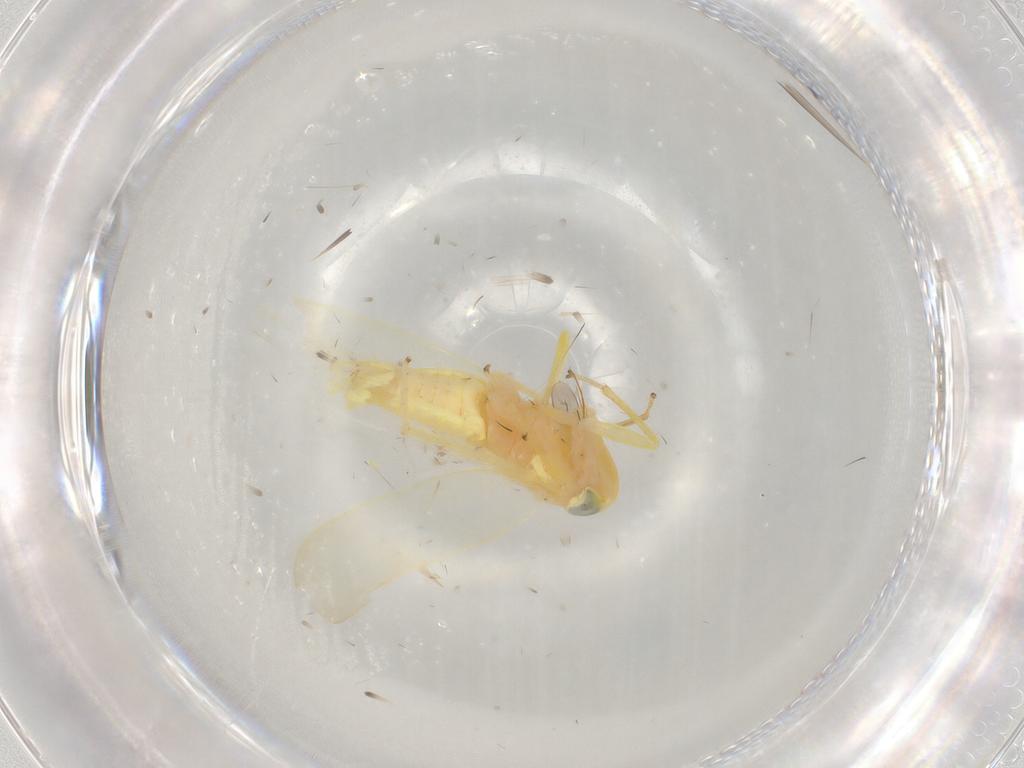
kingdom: Animalia
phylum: Arthropoda
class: Insecta
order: Hemiptera
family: Cicadellidae
